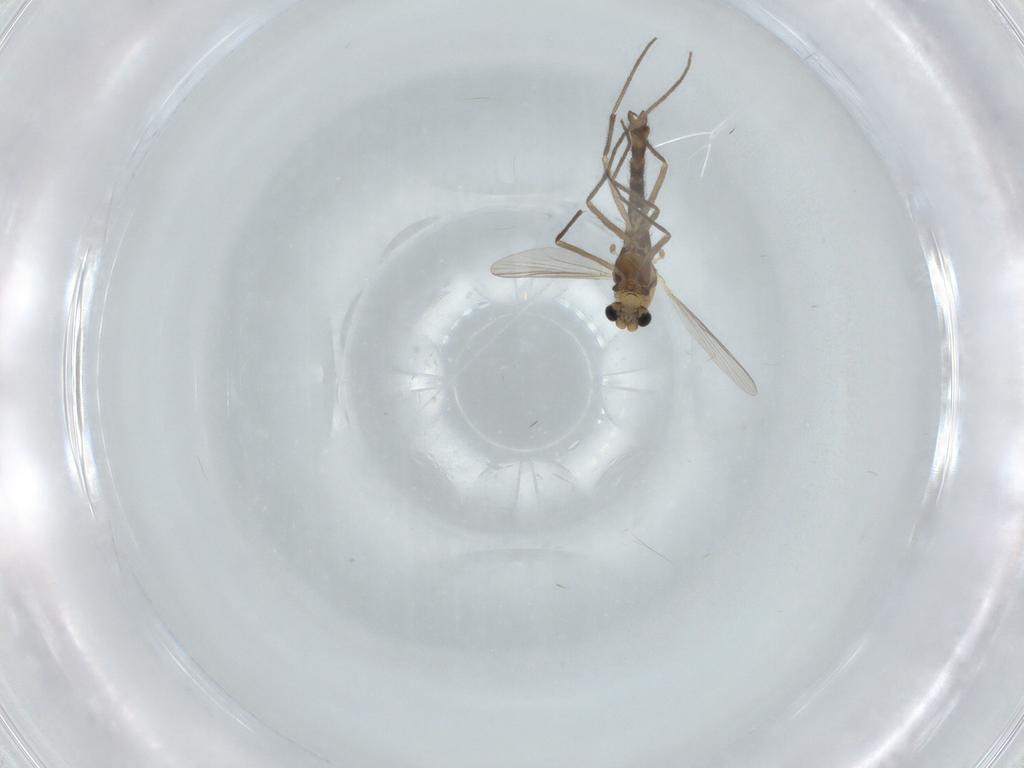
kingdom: Animalia
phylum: Arthropoda
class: Insecta
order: Diptera
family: Chironomidae
